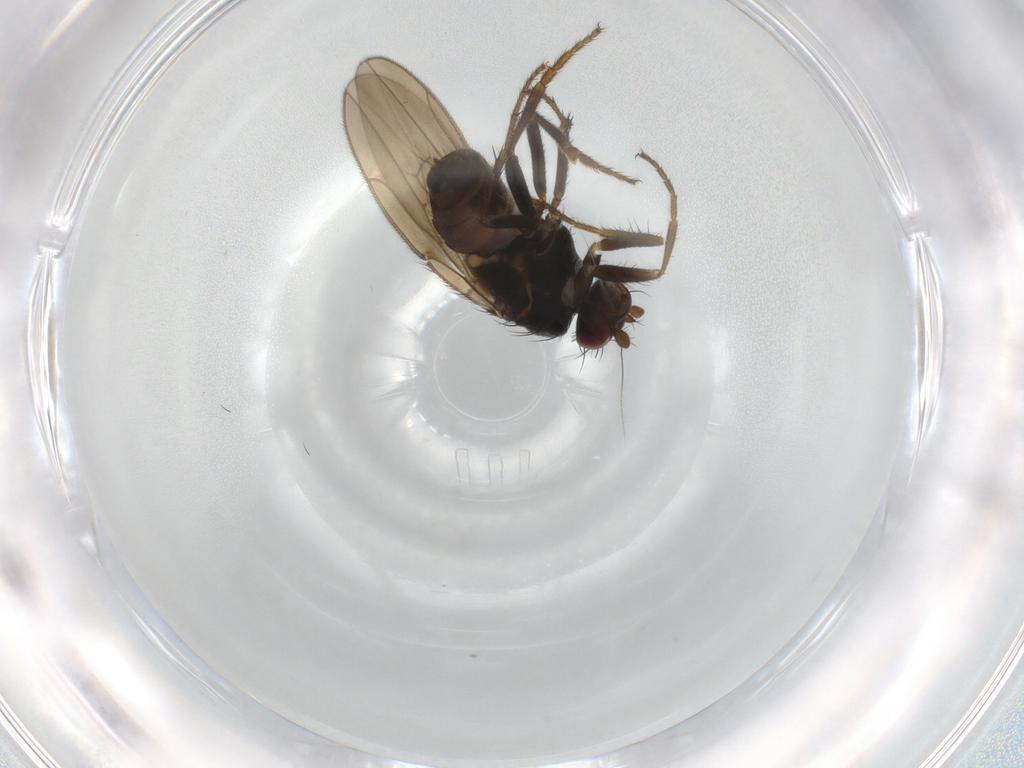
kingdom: Animalia
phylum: Arthropoda
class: Insecta
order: Diptera
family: Sphaeroceridae
